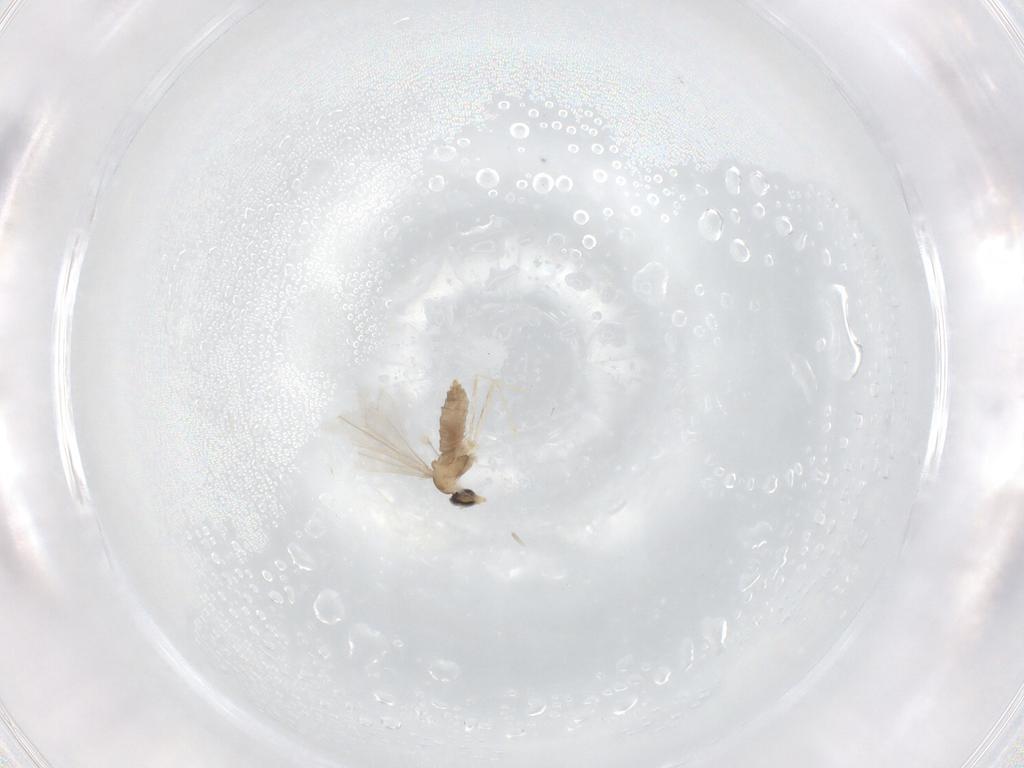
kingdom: Animalia
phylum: Arthropoda
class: Insecta
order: Diptera
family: Cecidomyiidae
